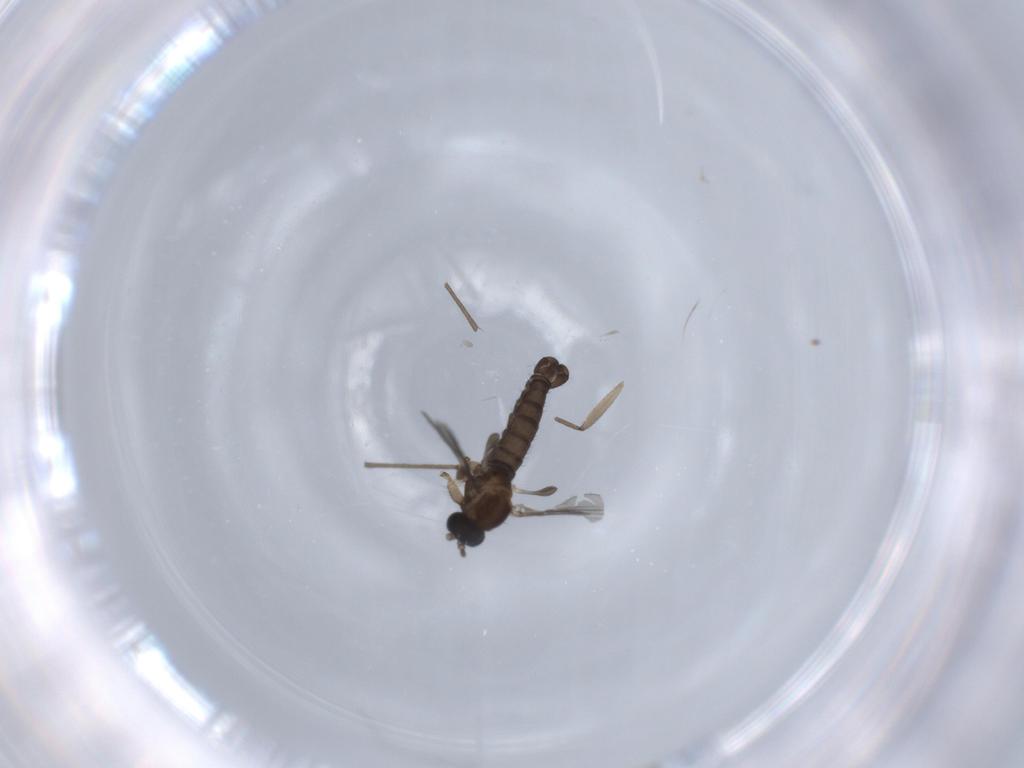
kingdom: Animalia
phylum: Arthropoda
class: Insecta
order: Diptera
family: Sciaridae
